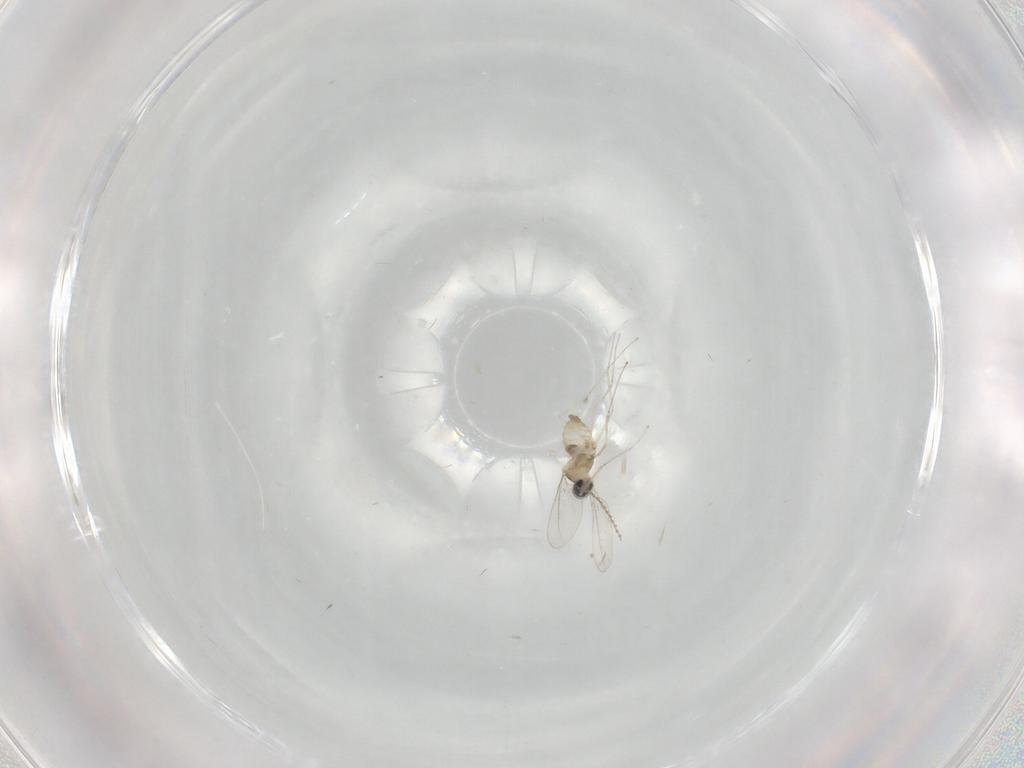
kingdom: Animalia
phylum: Arthropoda
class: Insecta
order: Diptera
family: Cecidomyiidae
